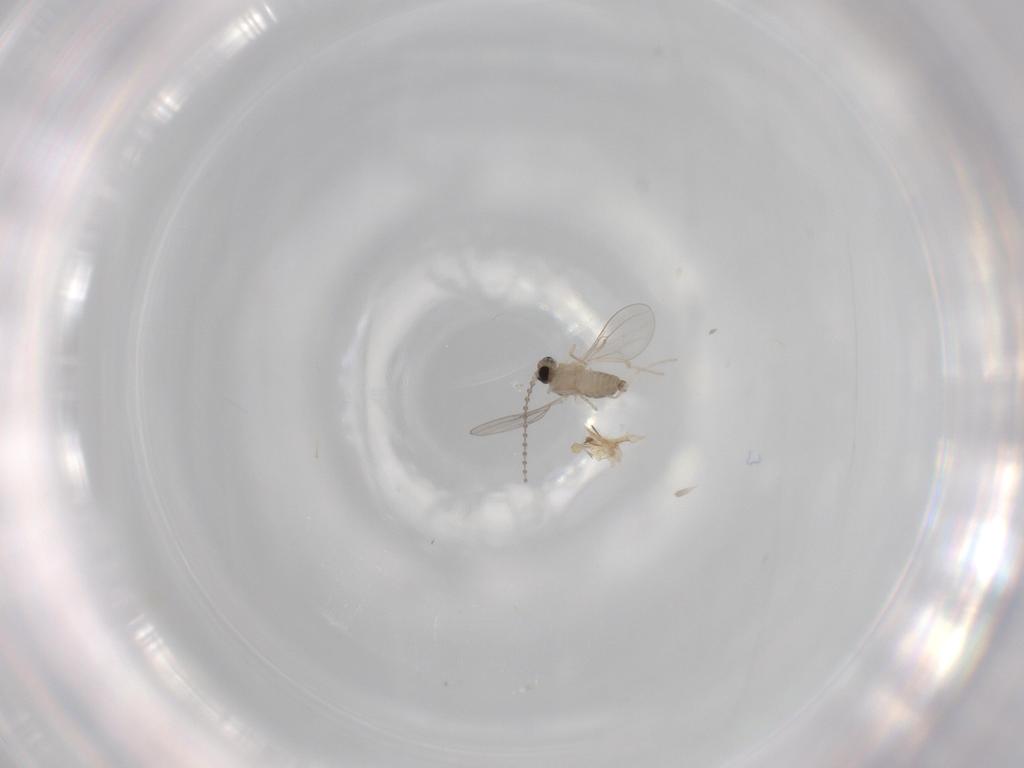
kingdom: Animalia
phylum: Arthropoda
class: Insecta
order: Diptera
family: Cecidomyiidae
